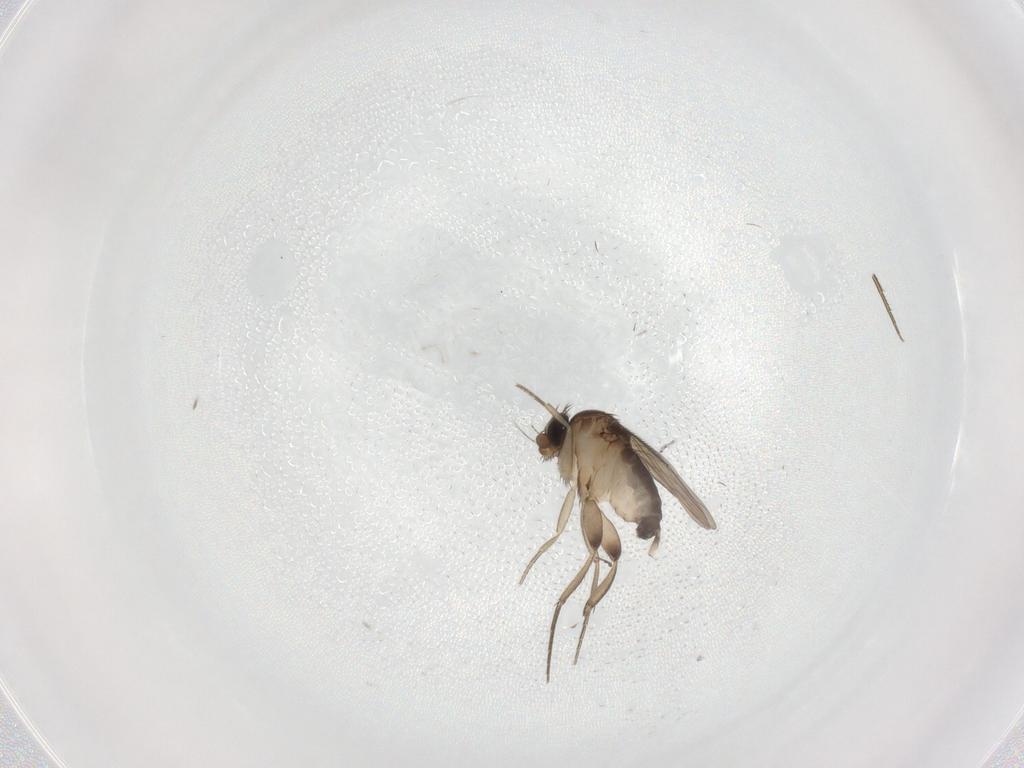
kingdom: Animalia
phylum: Arthropoda
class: Insecta
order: Diptera
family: Phoridae
